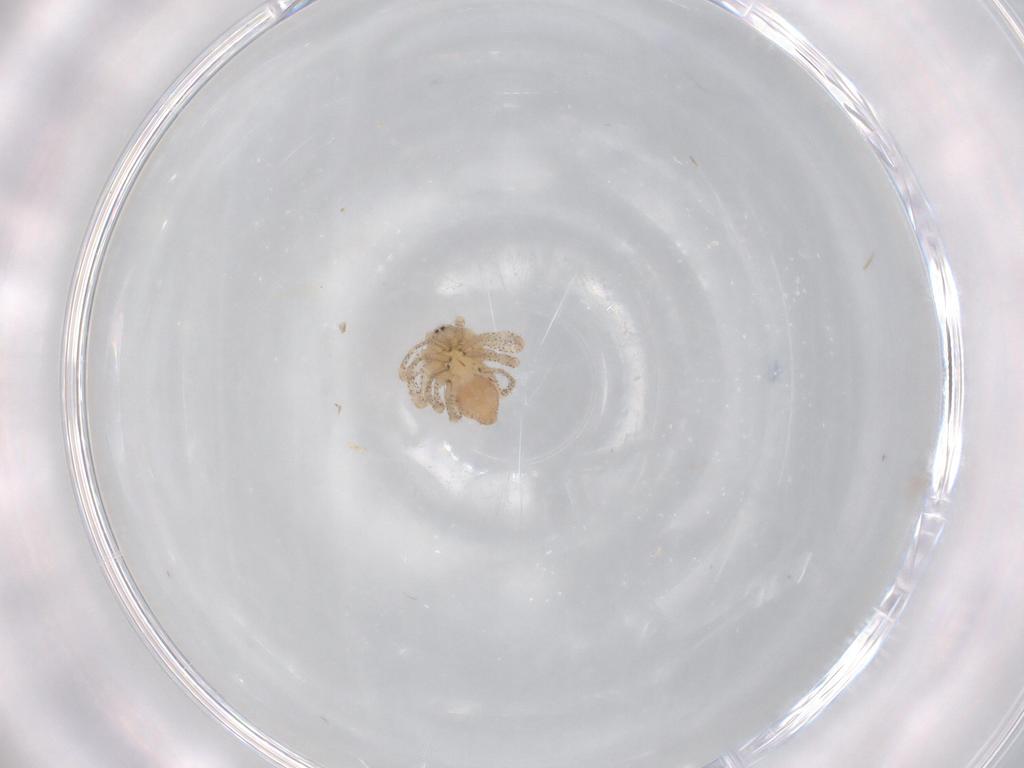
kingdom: Animalia
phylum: Arthropoda
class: Arachnida
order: Araneae
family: Philodromidae
